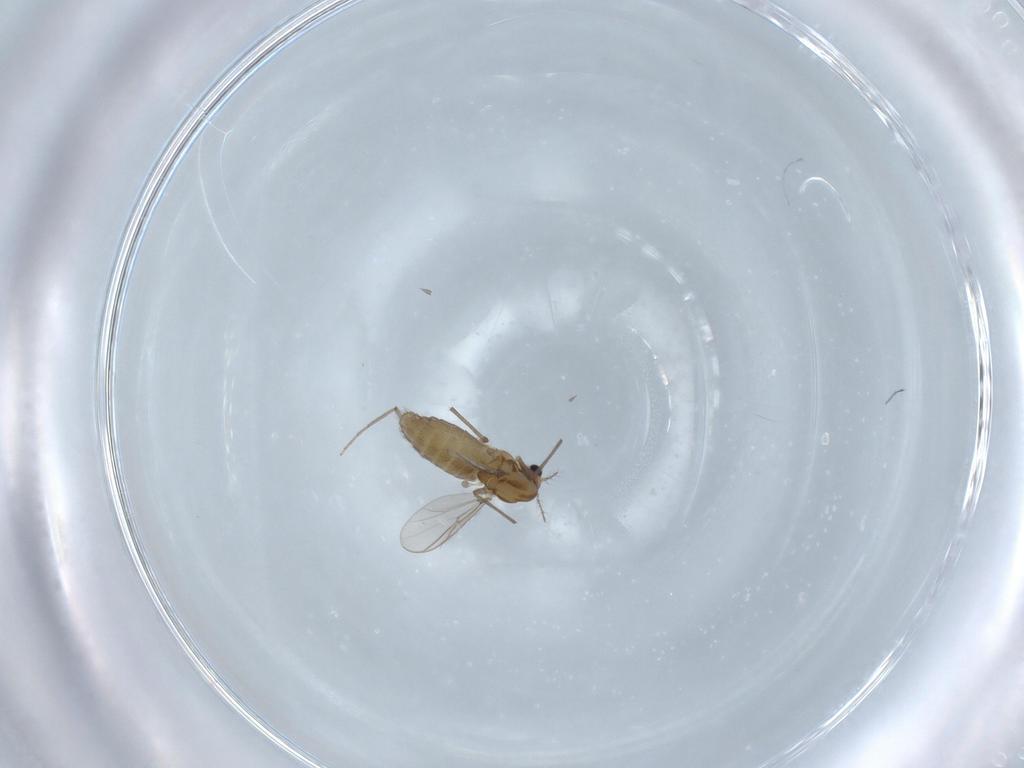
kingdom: Animalia
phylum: Arthropoda
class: Insecta
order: Diptera
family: Chironomidae
